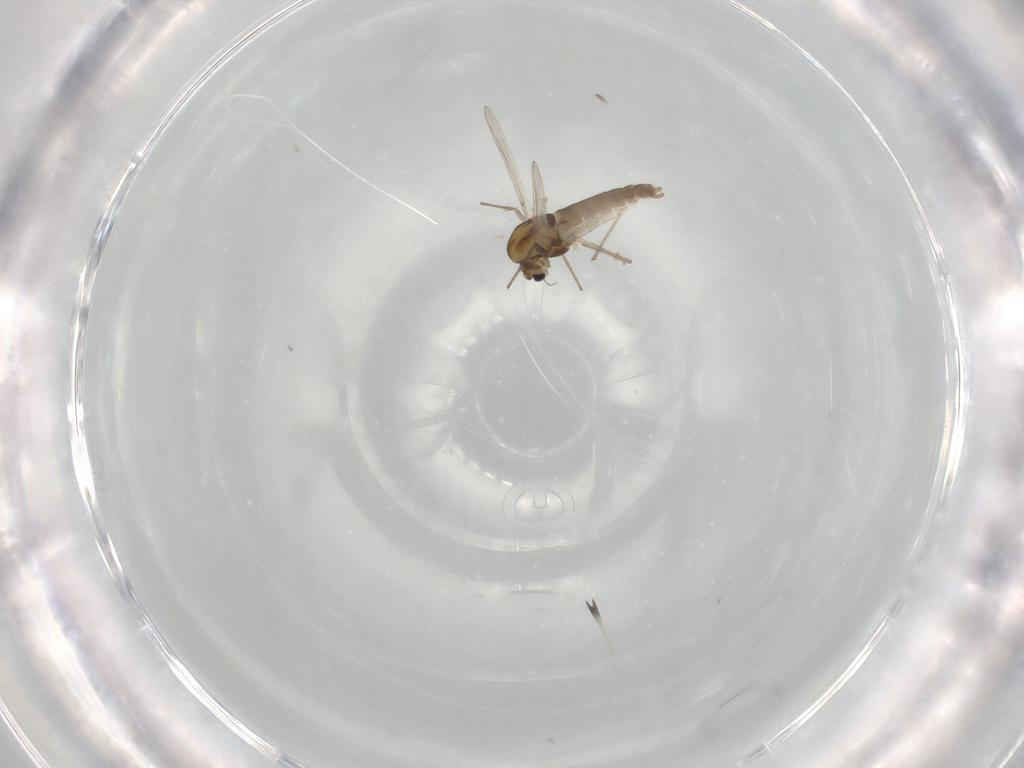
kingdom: Animalia
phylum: Arthropoda
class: Insecta
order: Diptera
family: Chironomidae
